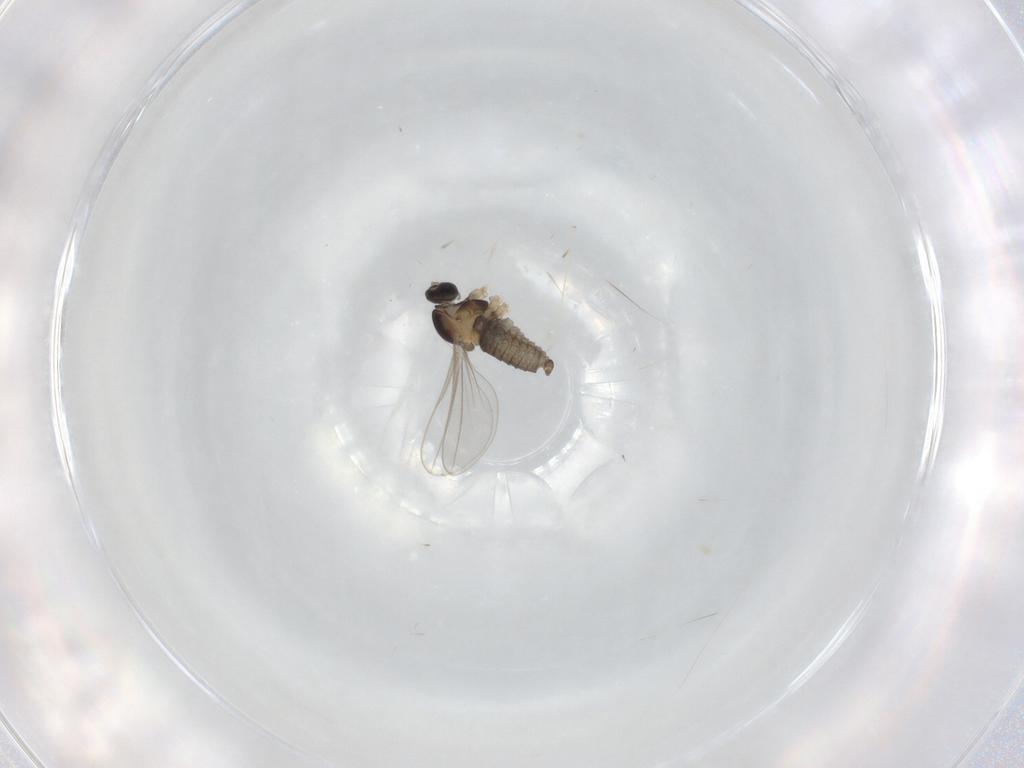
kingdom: Animalia
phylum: Arthropoda
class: Insecta
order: Diptera
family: Cecidomyiidae
